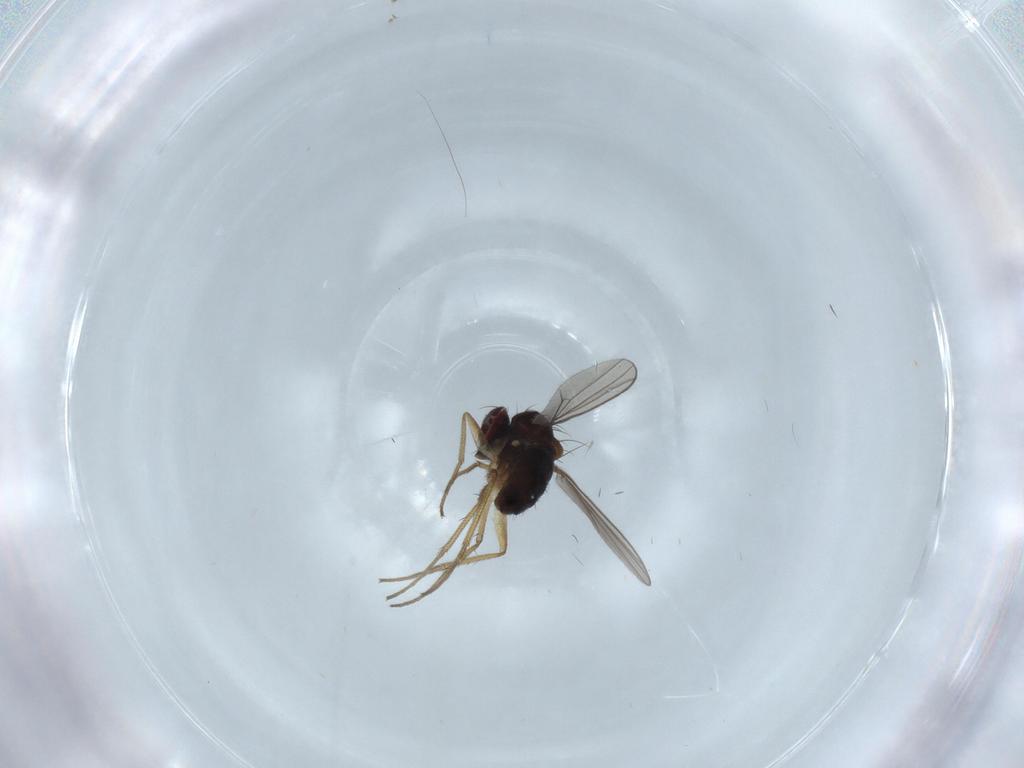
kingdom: Animalia
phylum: Arthropoda
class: Insecta
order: Diptera
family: Dolichopodidae
